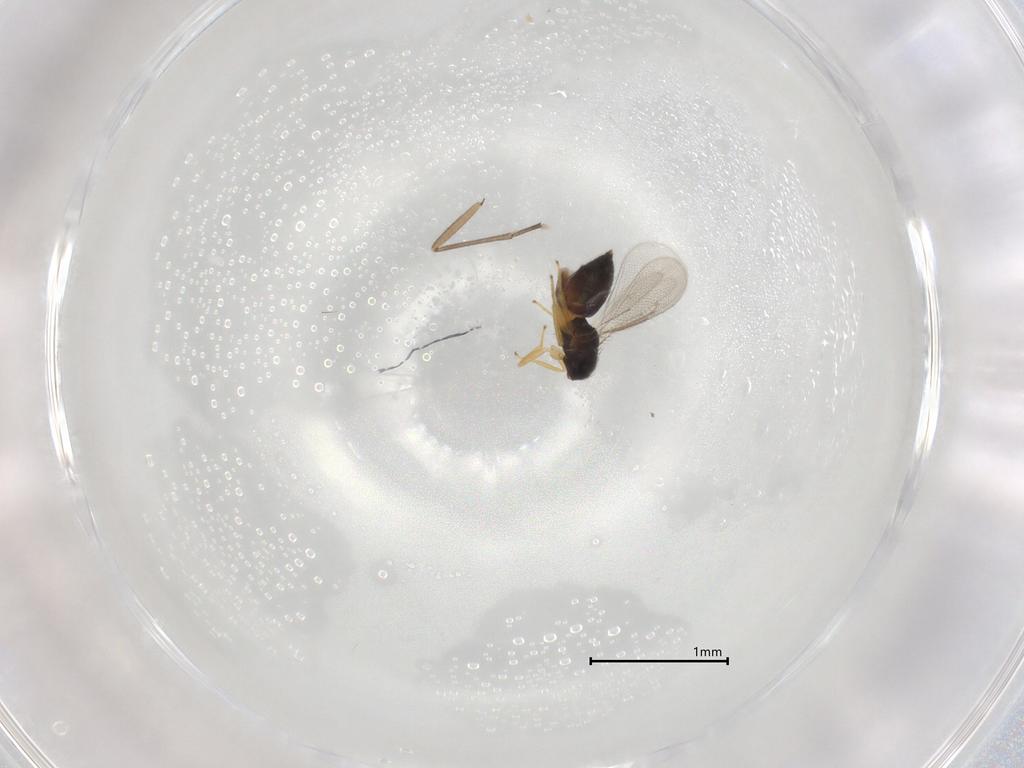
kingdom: Animalia
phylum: Arthropoda
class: Insecta
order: Hymenoptera
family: Eulophidae
